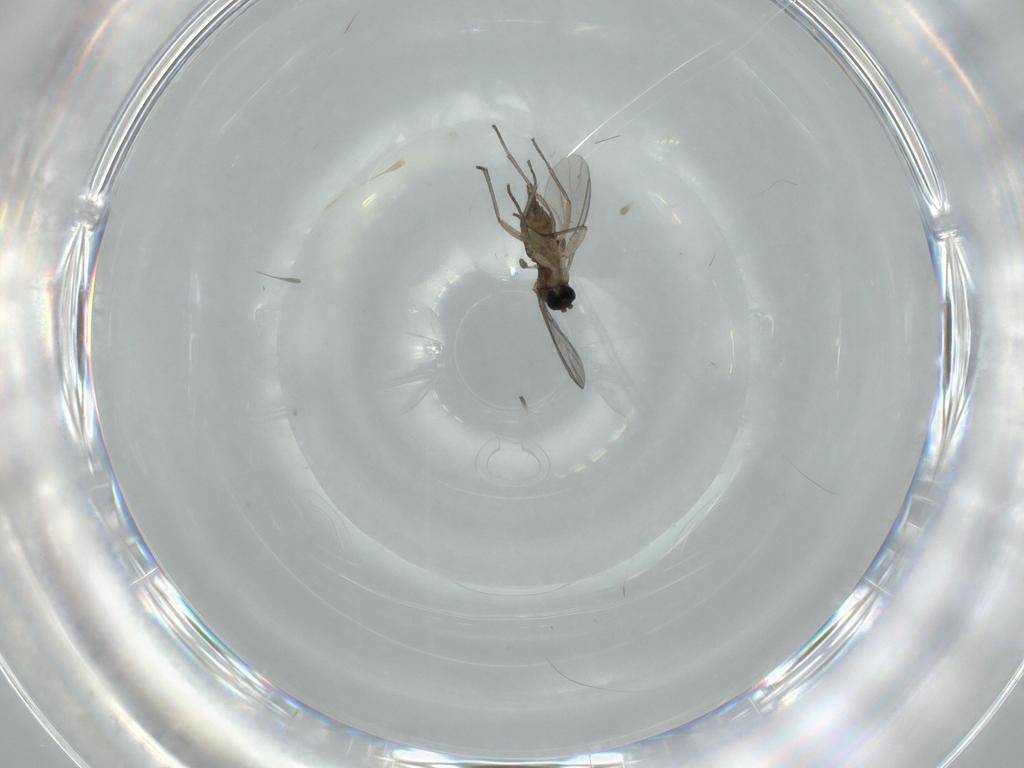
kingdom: Animalia
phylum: Arthropoda
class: Insecta
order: Diptera
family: Sciaridae
